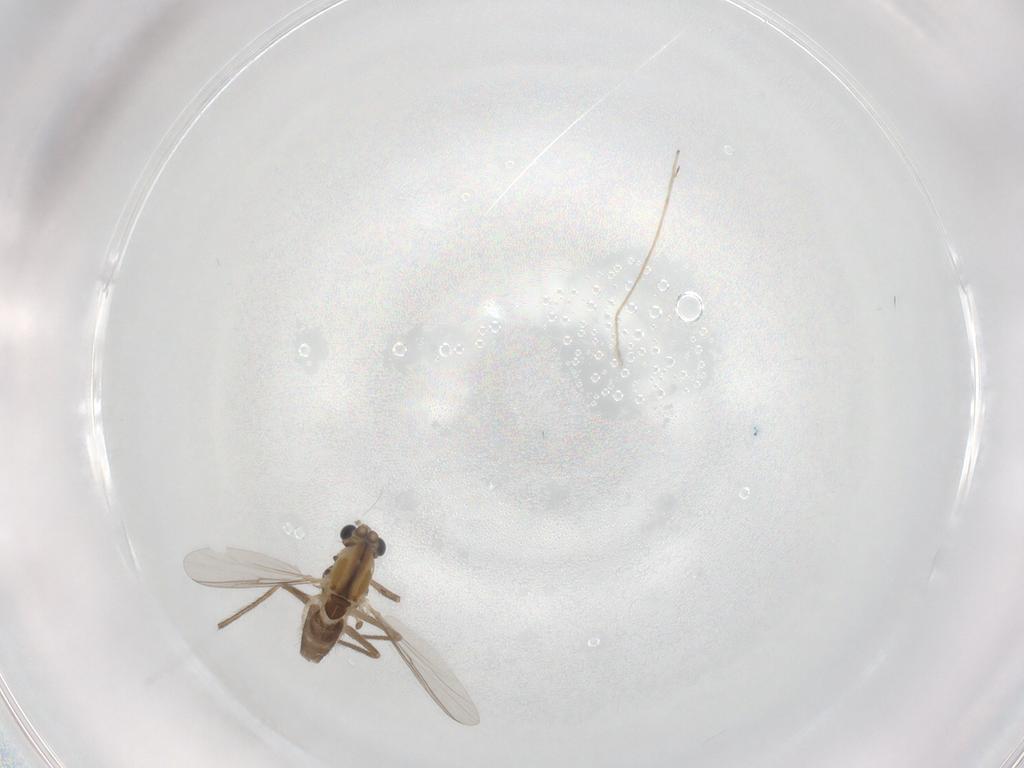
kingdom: Animalia
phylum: Arthropoda
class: Insecta
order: Diptera
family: Chironomidae
